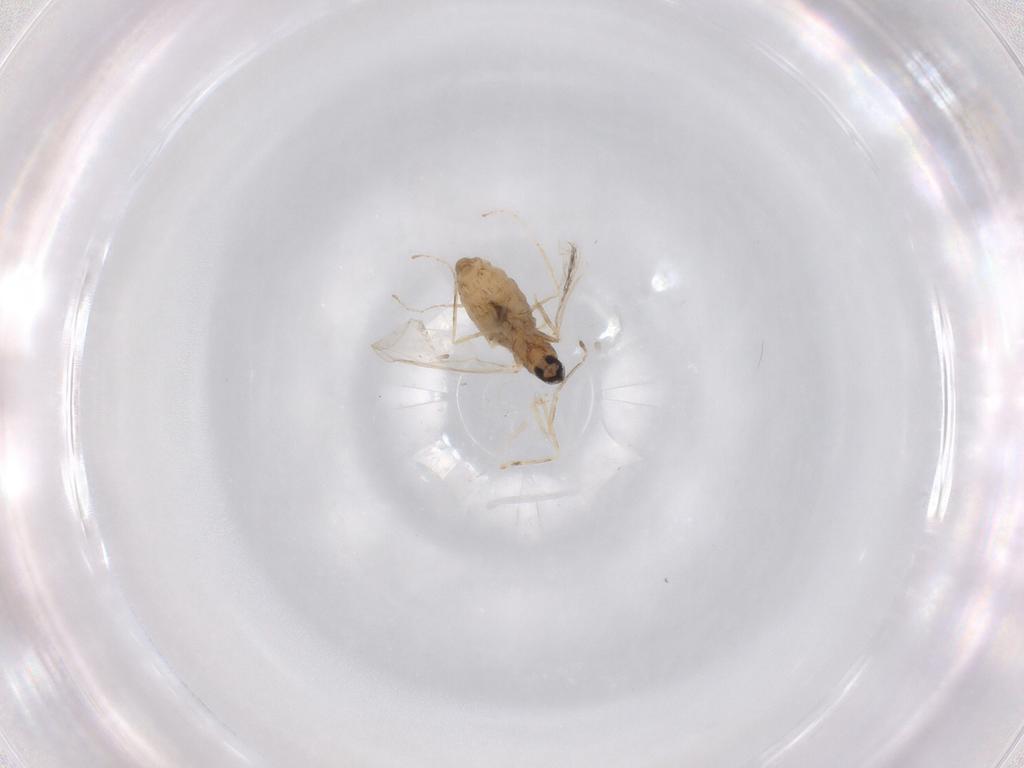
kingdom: Animalia
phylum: Arthropoda
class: Insecta
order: Diptera
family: Cecidomyiidae
